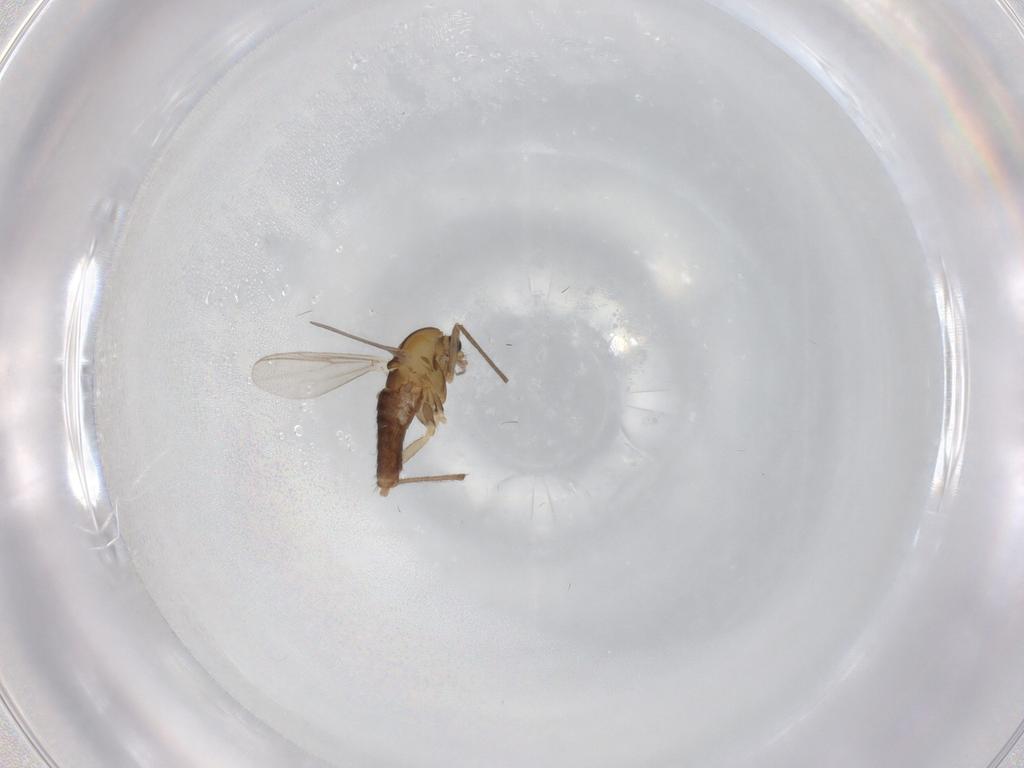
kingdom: Animalia
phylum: Arthropoda
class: Insecta
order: Diptera
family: Chironomidae
